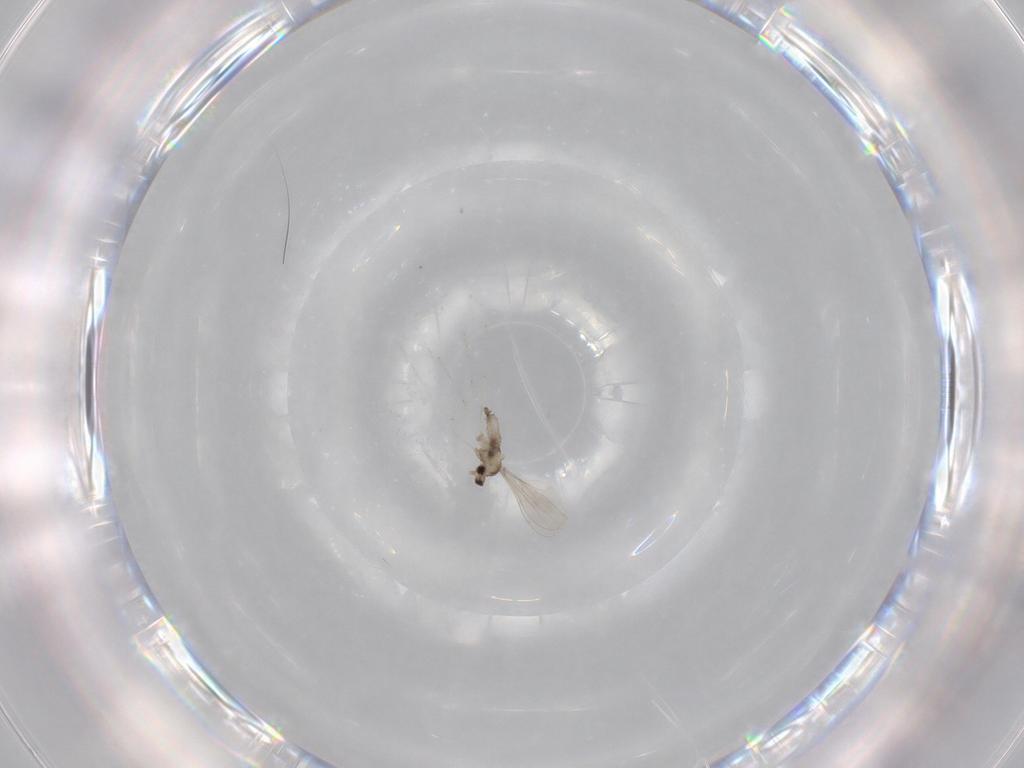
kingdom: Animalia
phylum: Arthropoda
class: Insecta
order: Diptera
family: Cecidomyiidae
